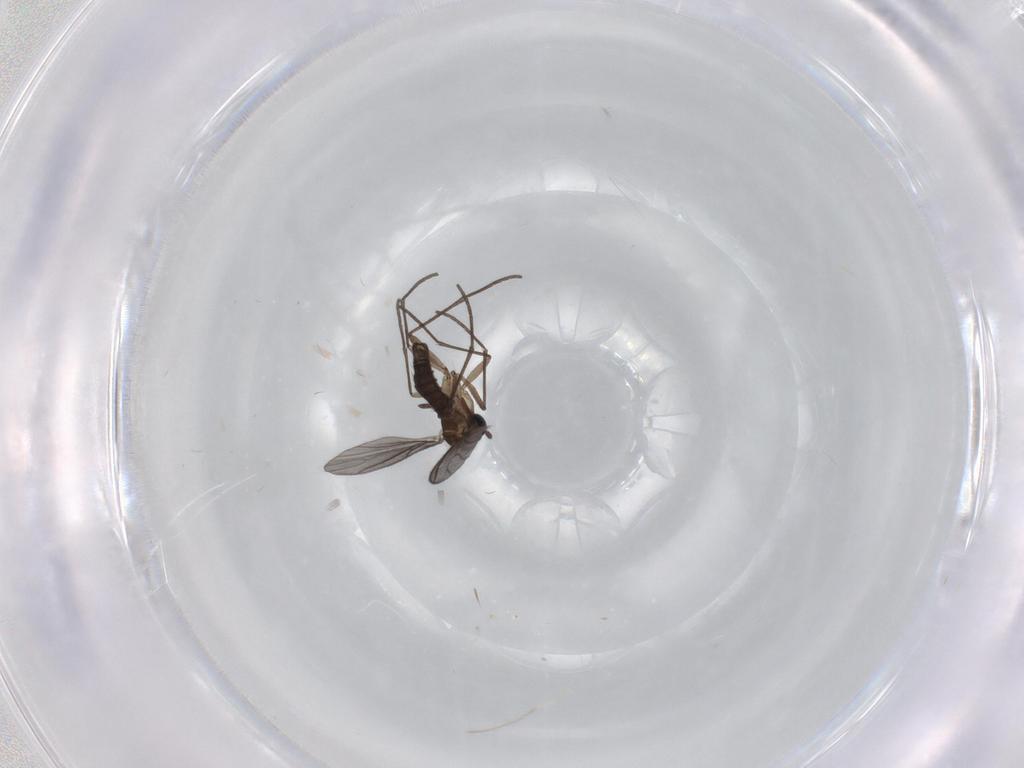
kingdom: Animalia
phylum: Arthropoda
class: Insecta
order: Diptera
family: Sciaridae
